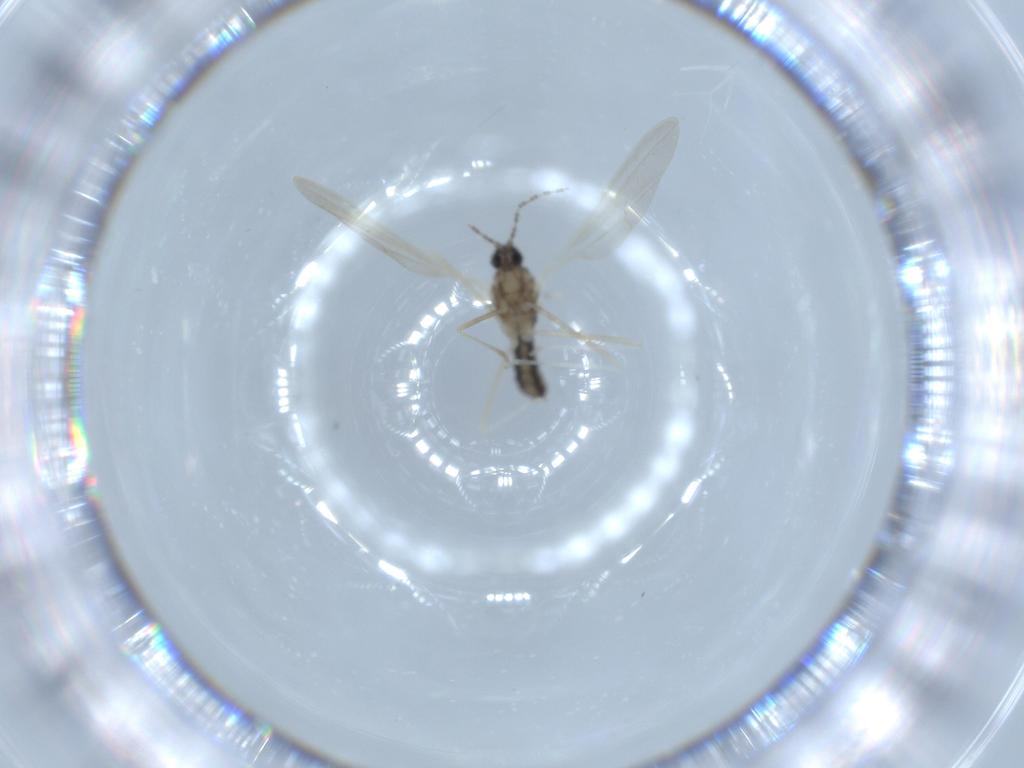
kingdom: Animalia
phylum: Arthropoda
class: Insecta
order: Diptera
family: Cecidomyiidae
